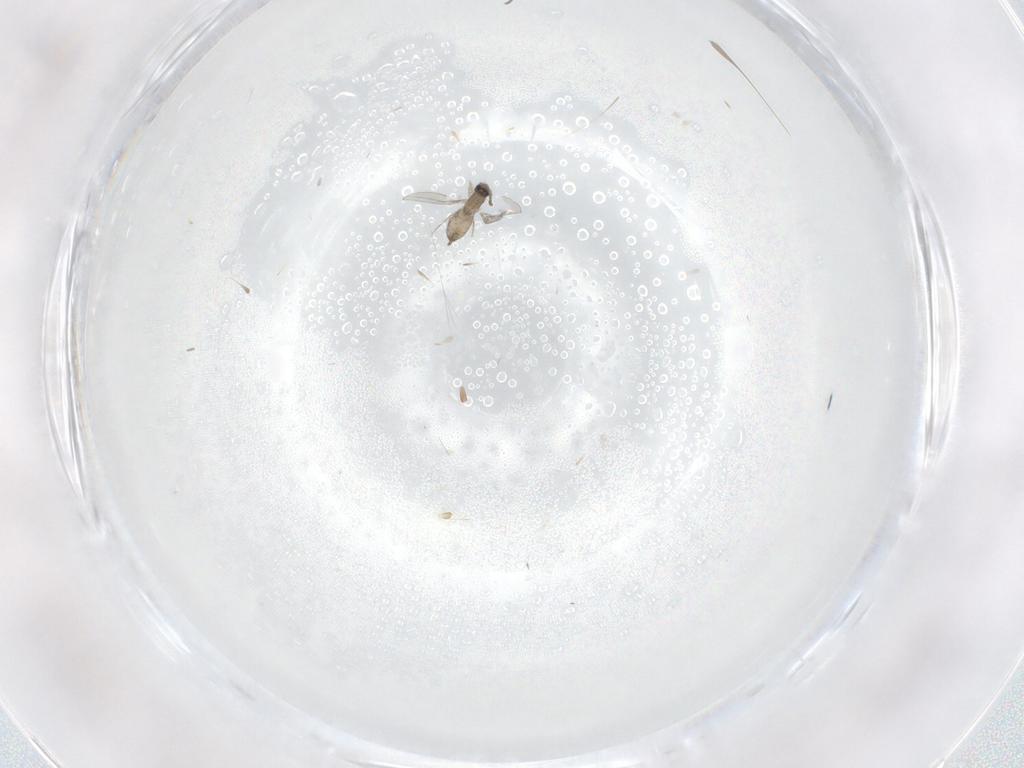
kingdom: Animalia
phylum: Arthropoda
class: Insecta
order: Diptera
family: Cecidomyiidae
